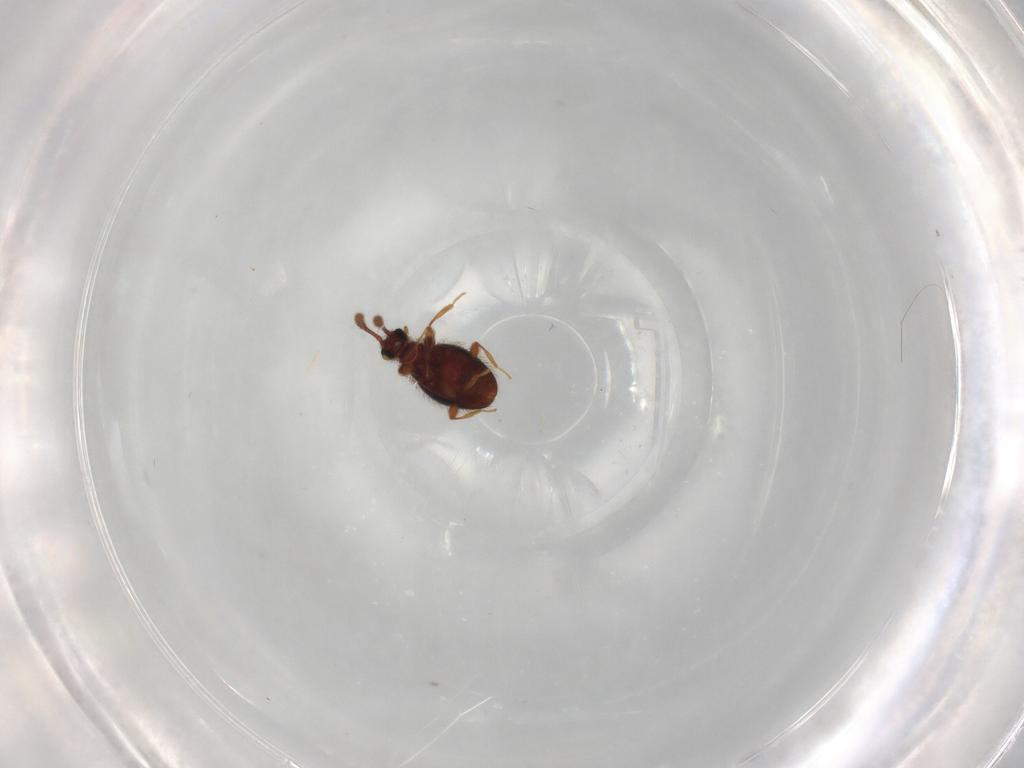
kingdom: Animalia
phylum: Arthropoda
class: Insecta
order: Coleoptera
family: Staphylinidae
